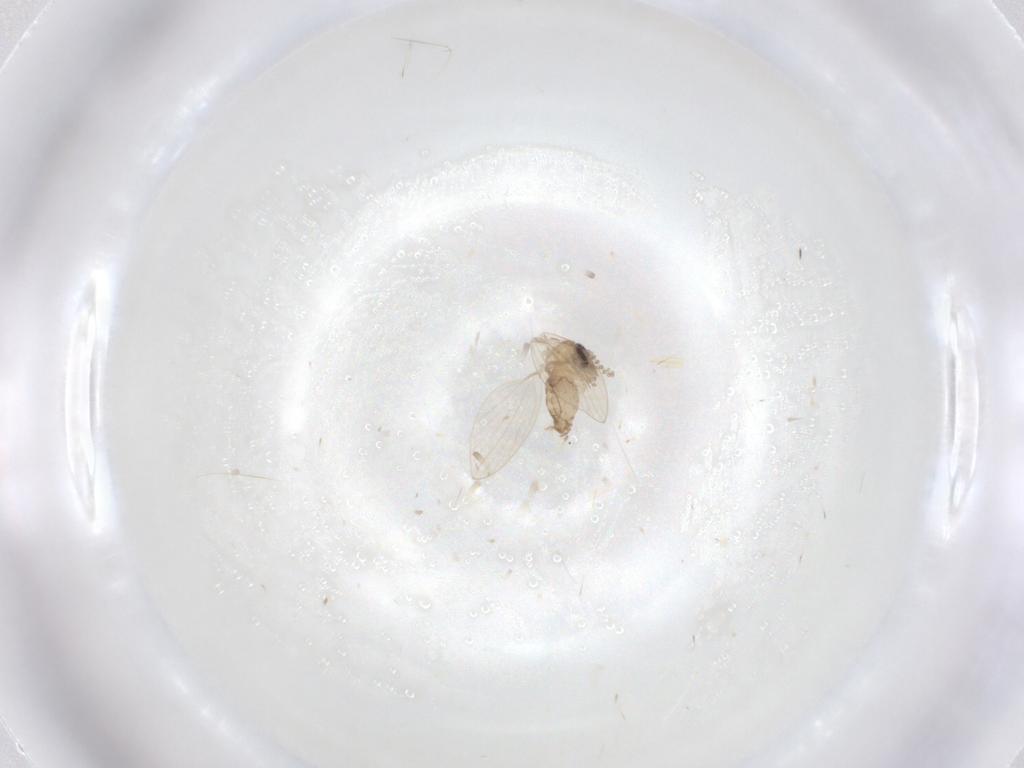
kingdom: Animalia
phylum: Arthropoda
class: Insecta
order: Diptera
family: Psychodidae
